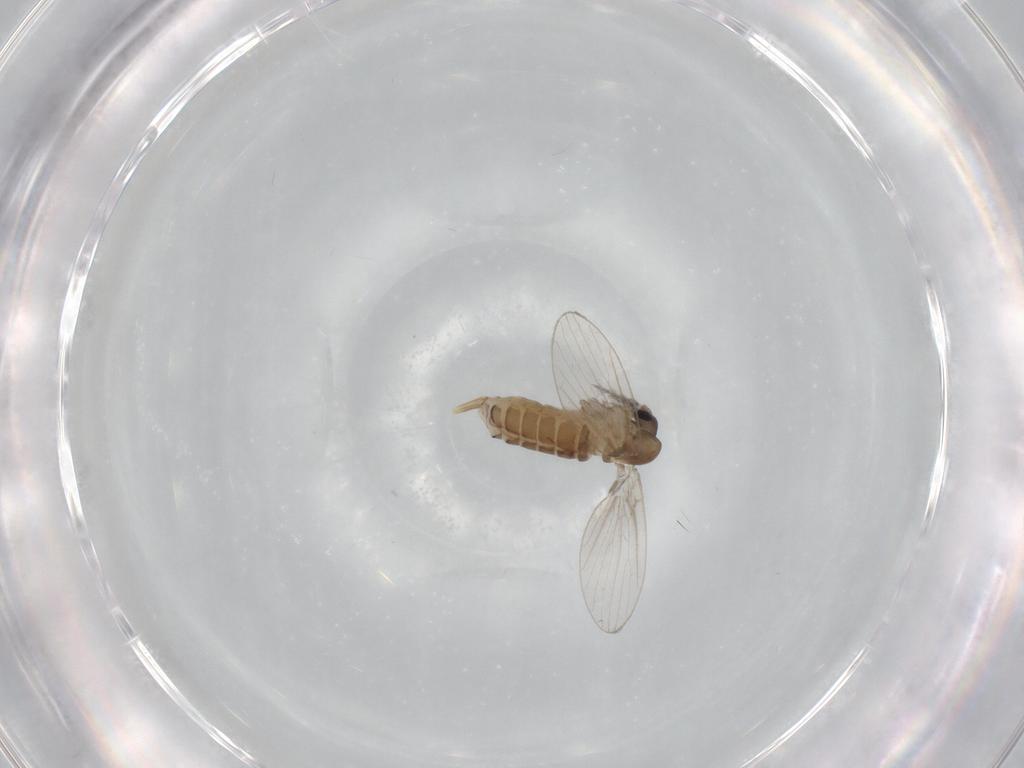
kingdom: Animalia
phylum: Arthropoda
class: Insecta
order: Diptera
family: Psychodidae
